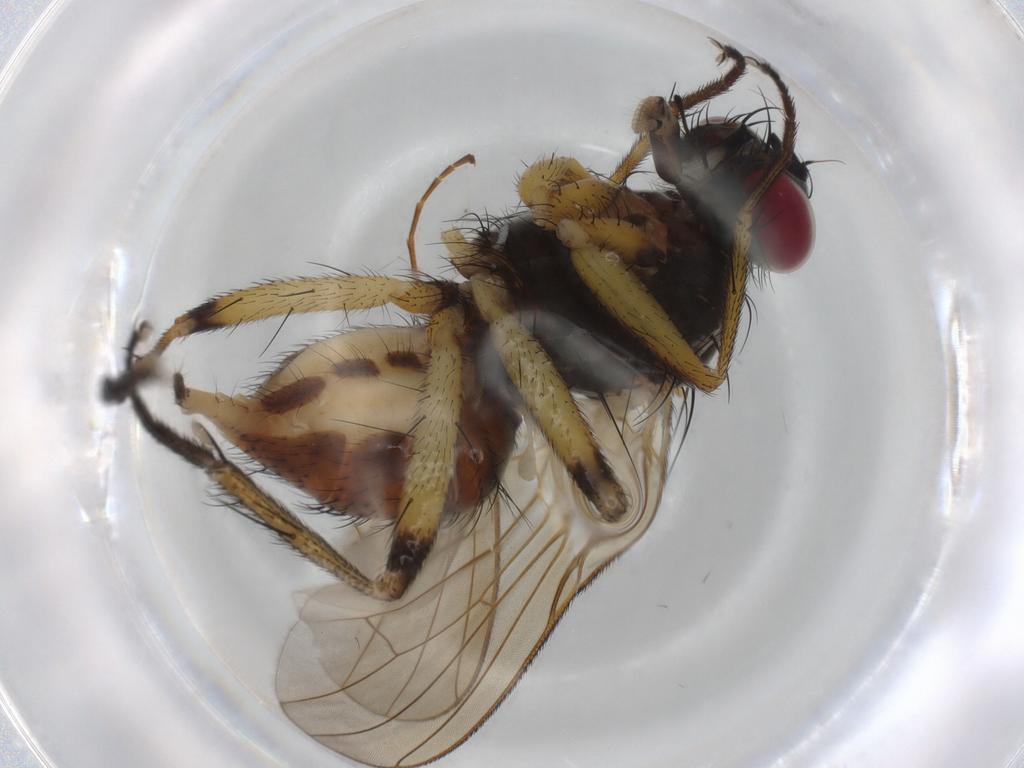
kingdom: Animalia
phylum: Arthropoda
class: Insecta
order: Diptera
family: Muscidae
